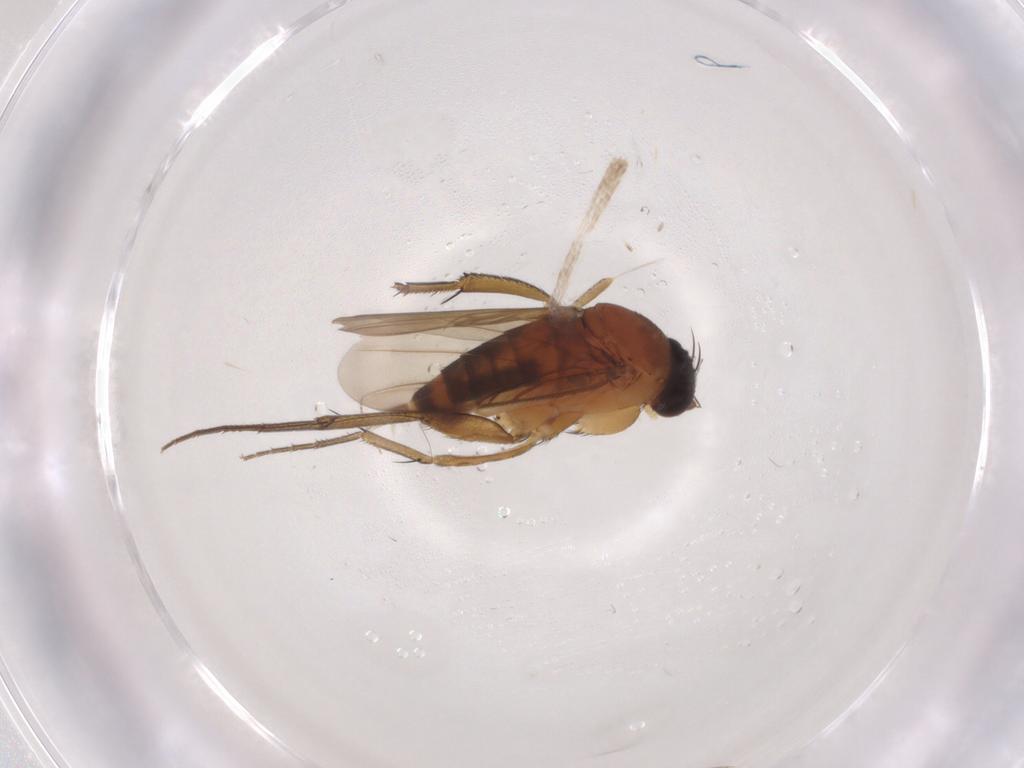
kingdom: Animalia
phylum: Arthropoda
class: Insecta
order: Diptera
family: Phoridae
